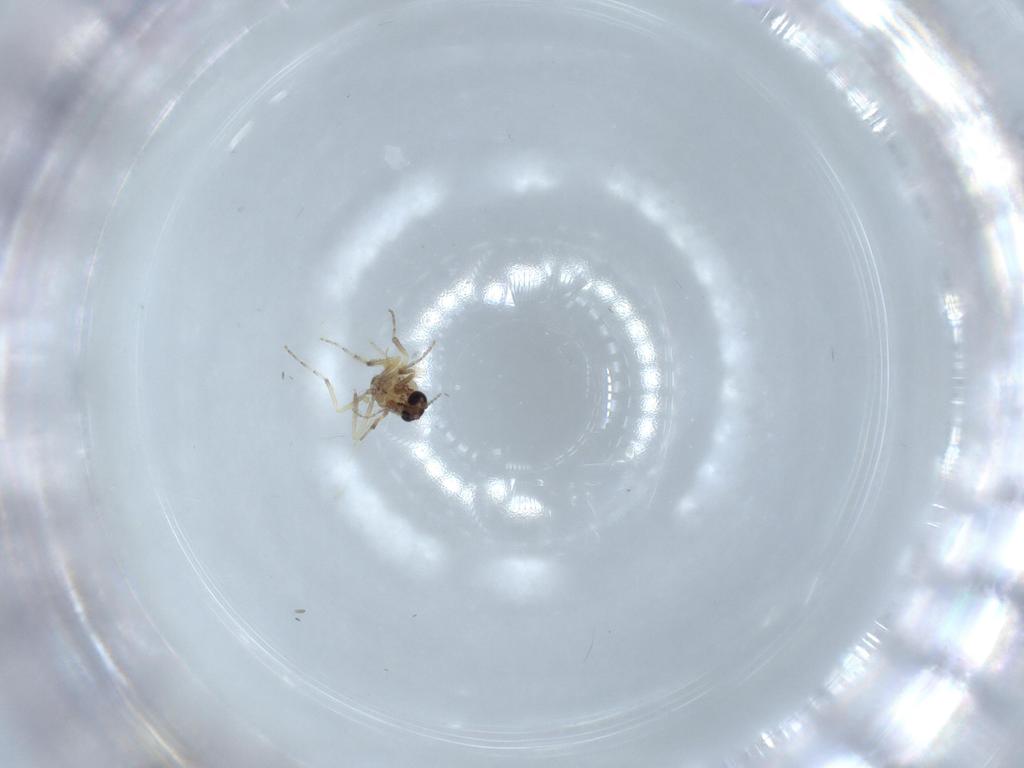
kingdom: Animalia
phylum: Arthropoda
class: Insecta
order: Diptera
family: Ceratopogonidae
